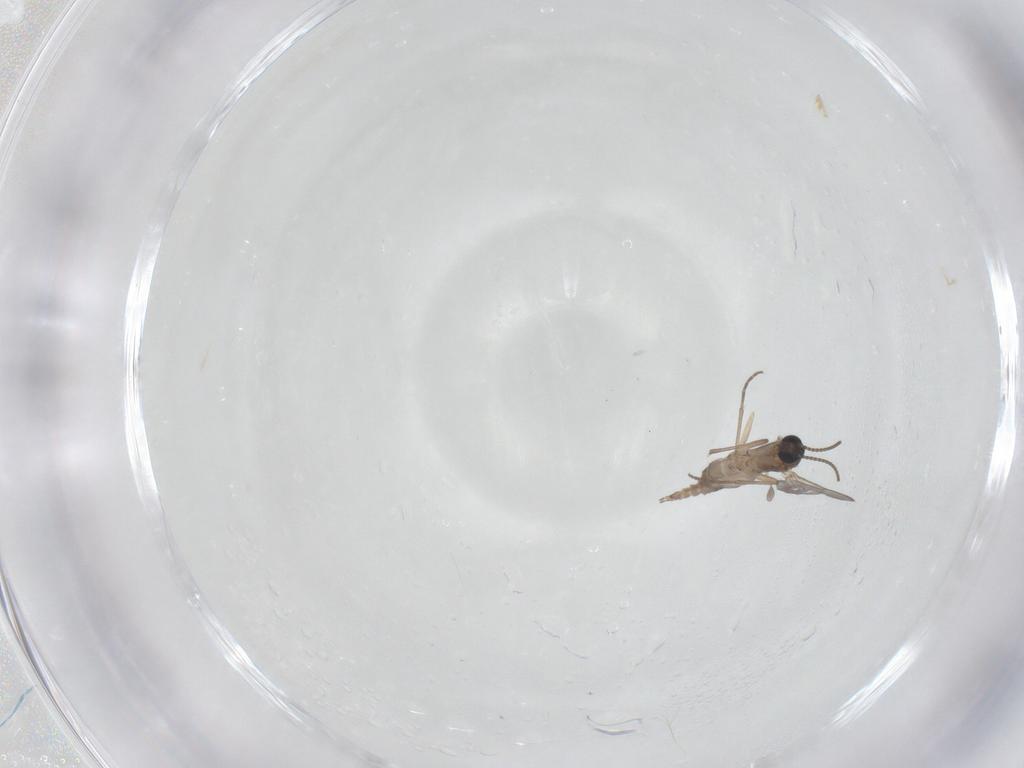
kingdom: Animalia
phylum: Arthropoda
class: Insecta
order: Diptera
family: Sciaridae
